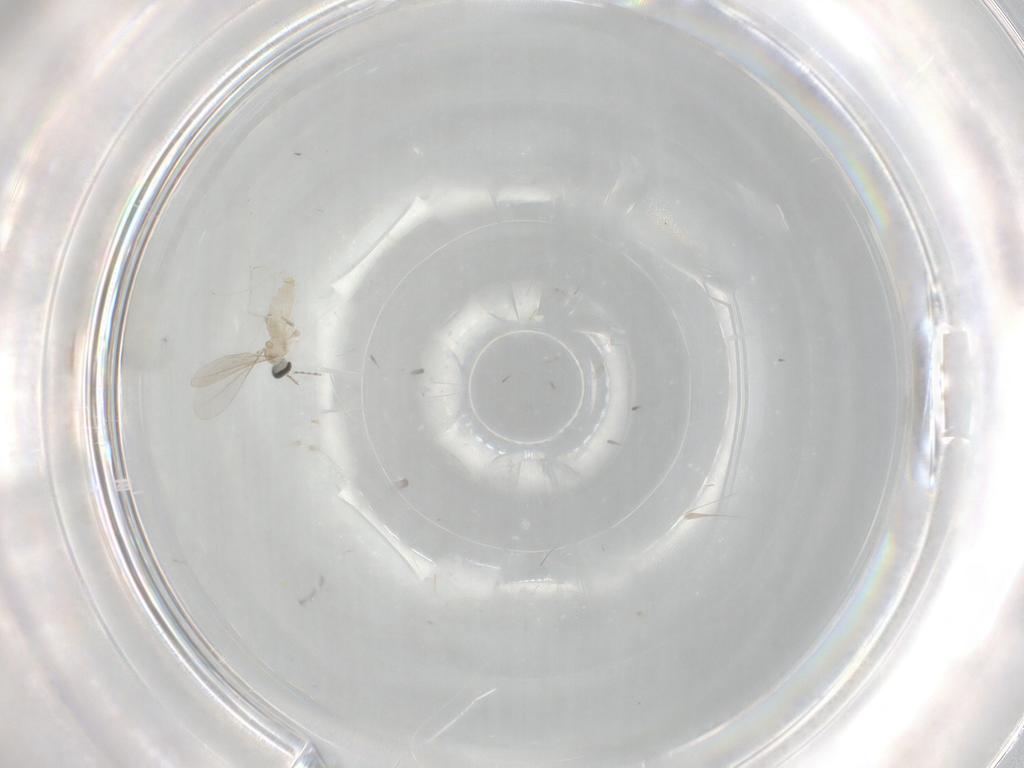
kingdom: Animalia
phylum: Arthropoda
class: Insecta
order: Diptera
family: Cecidomyiidae
